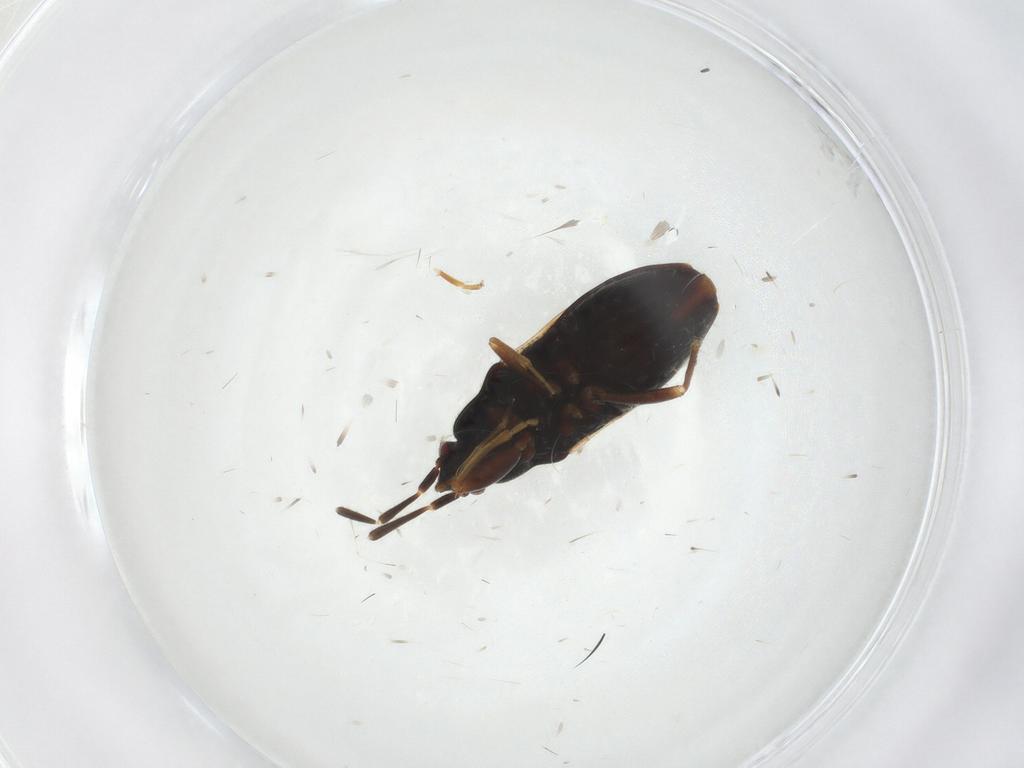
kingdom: Animalia
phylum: Arthropoda
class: Insecta
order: Hemiptera
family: Rhyparochromidae
